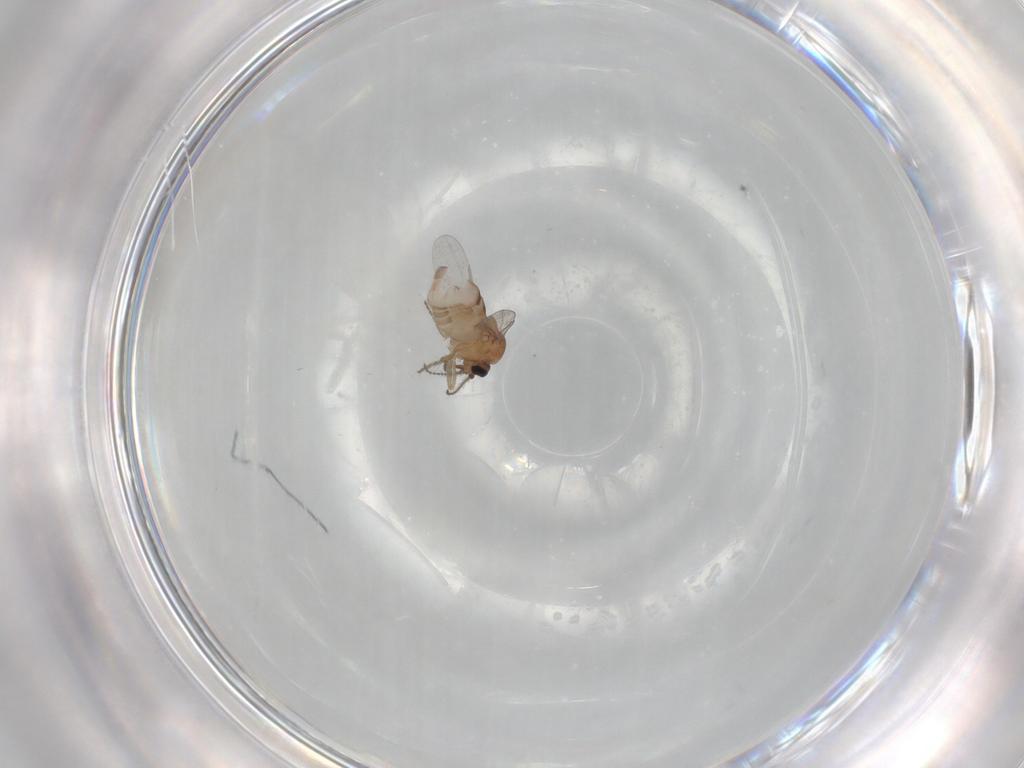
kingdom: Animalia
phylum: Arthropoda
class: Insecta
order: Diptera
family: Ceratopogonidae
